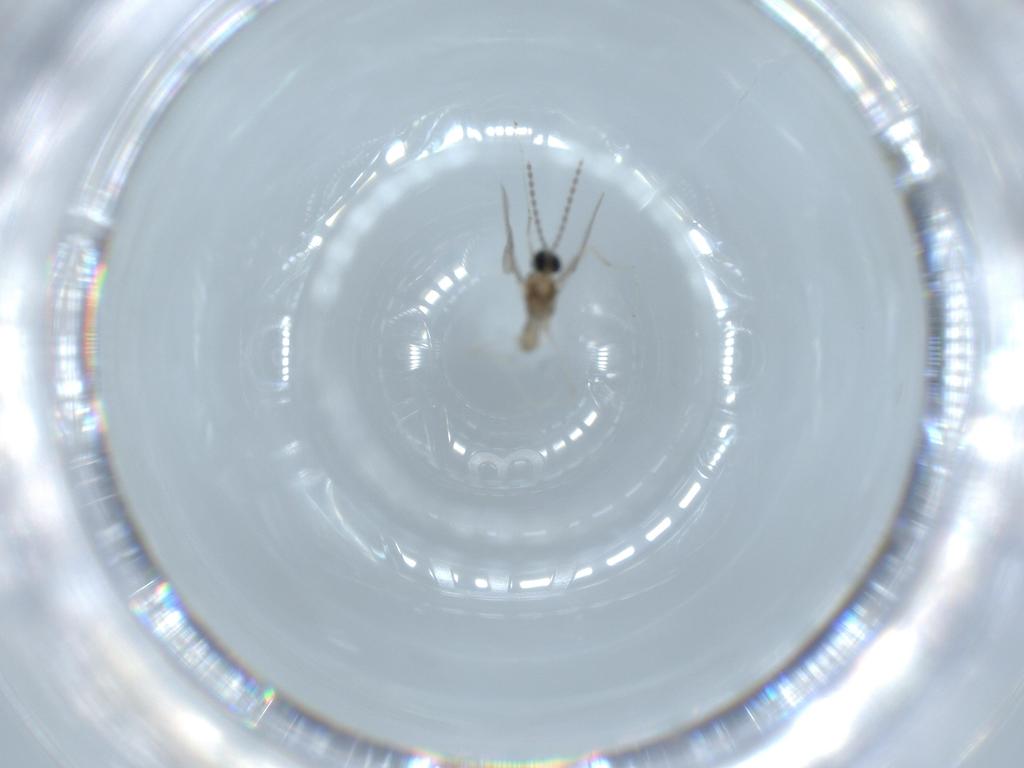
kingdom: Animalia
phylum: Arthropoda
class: Insecta
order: Diptera
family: Cecidomyiidae
